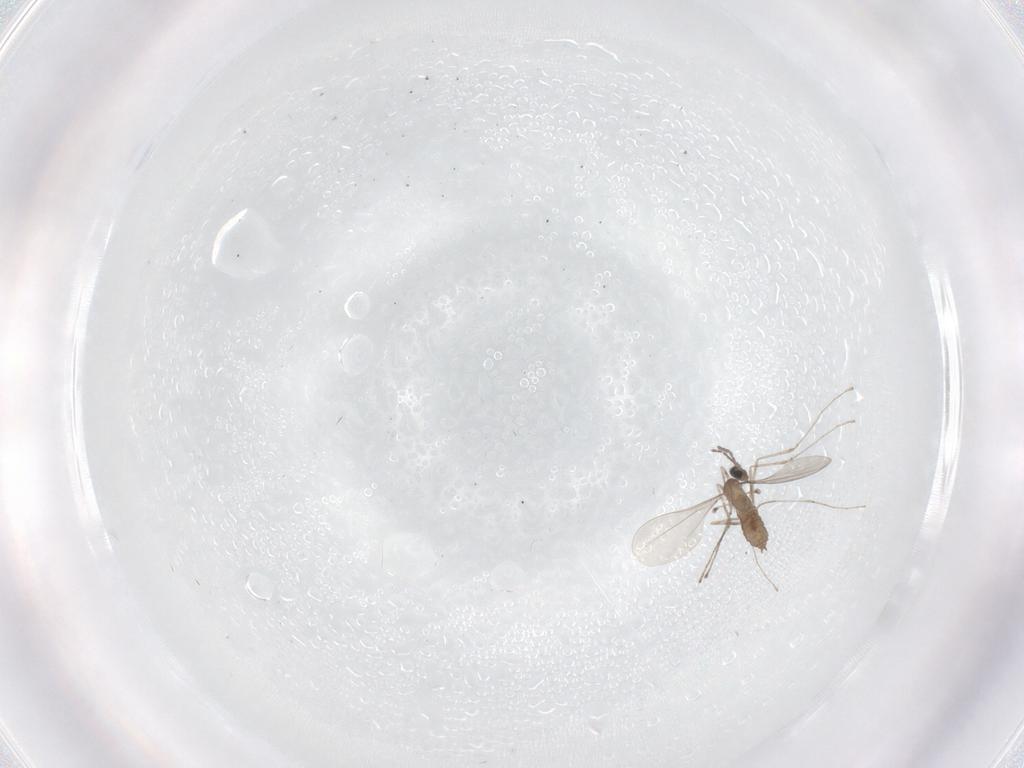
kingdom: Animalia
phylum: Arthropoda
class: Insecta
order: Diptera
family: Cecidomyiidae
